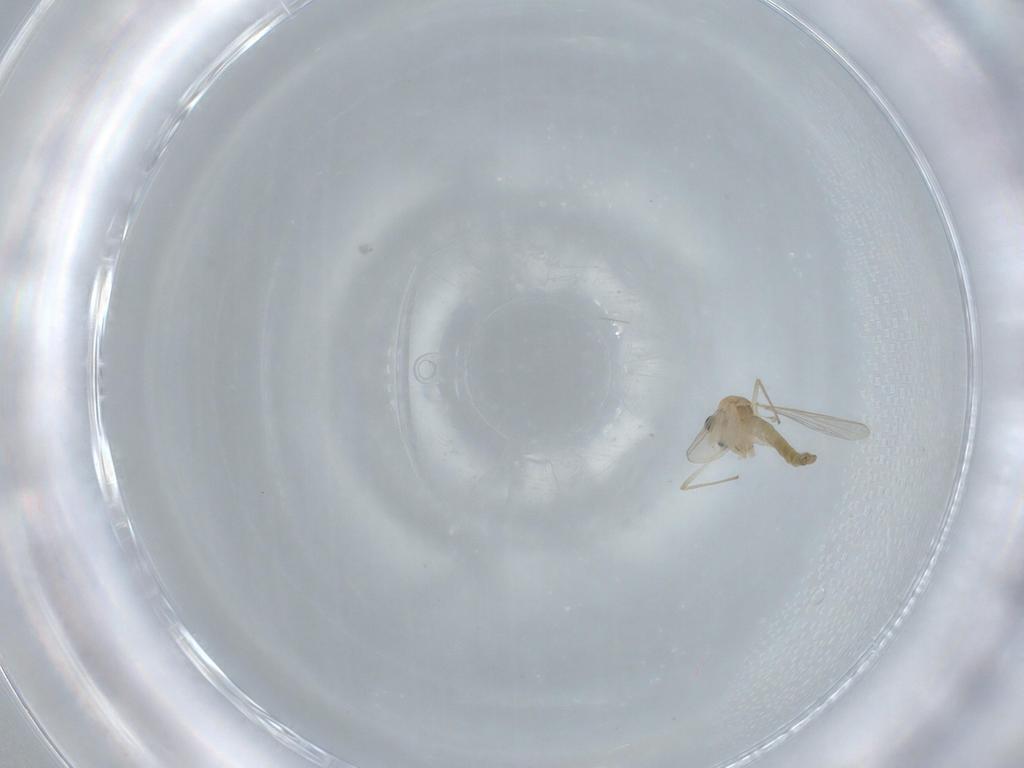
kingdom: Animalia
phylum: Arthropoda
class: Insecta
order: Diptera
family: Chironomidae
